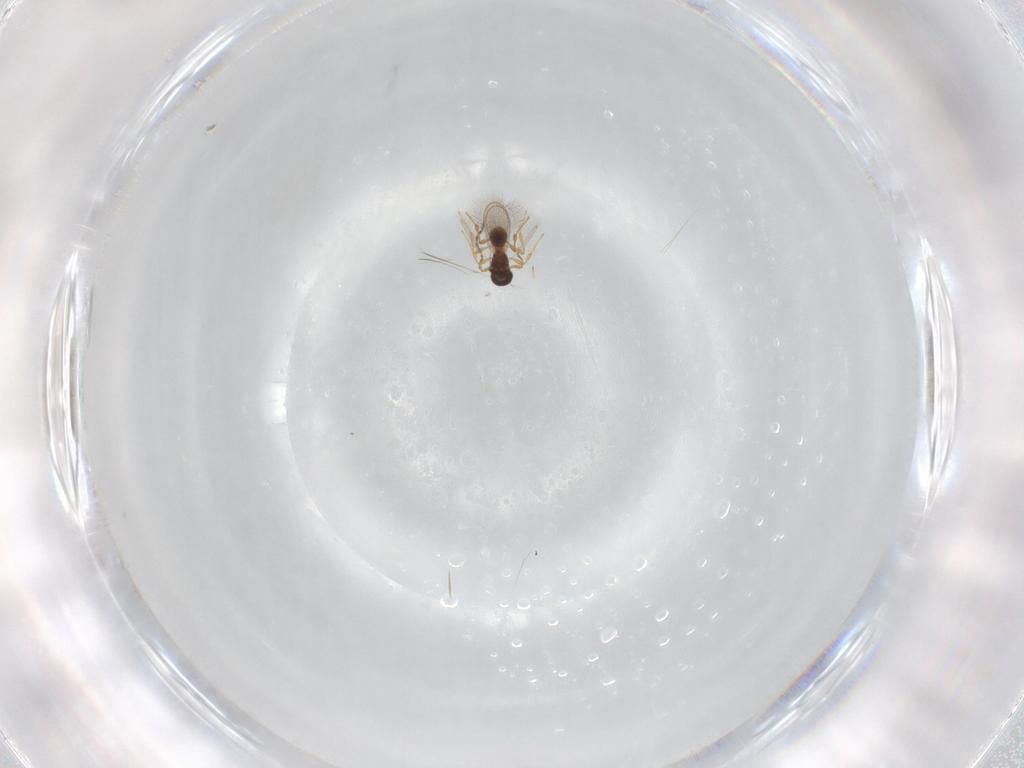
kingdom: Animalia
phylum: Arthropoda
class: Insecta
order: Hymenoptera
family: Platygastridae
